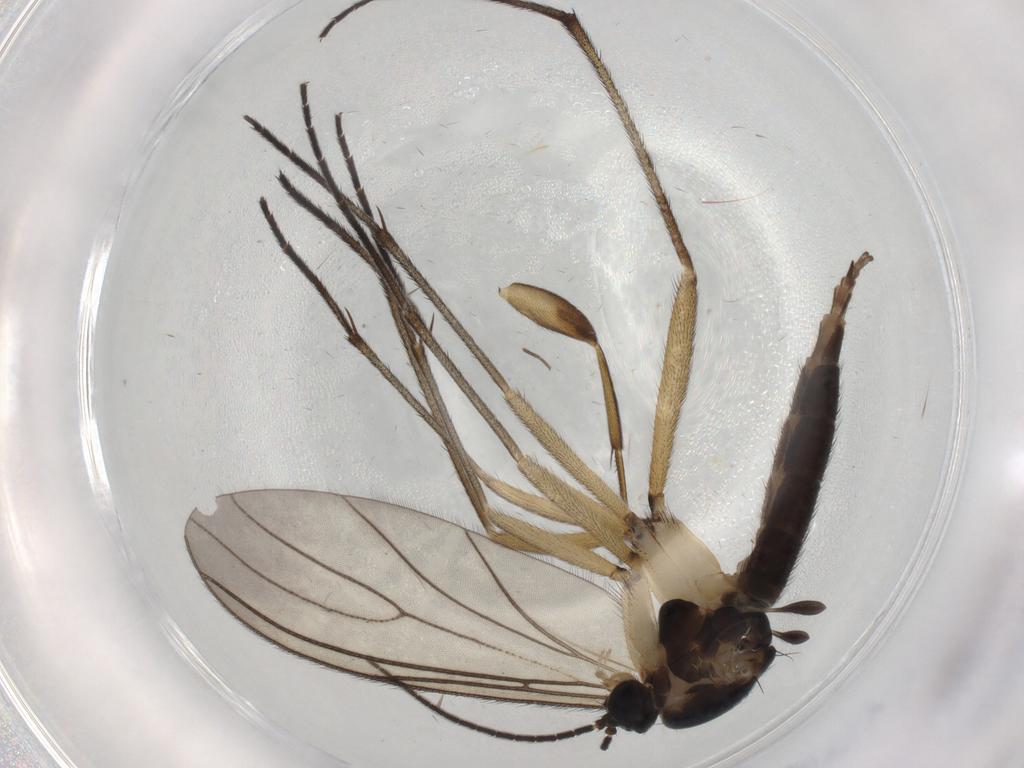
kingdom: Animalia
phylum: Arthropoda
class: Insecta
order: Diptera
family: Sciaridae
